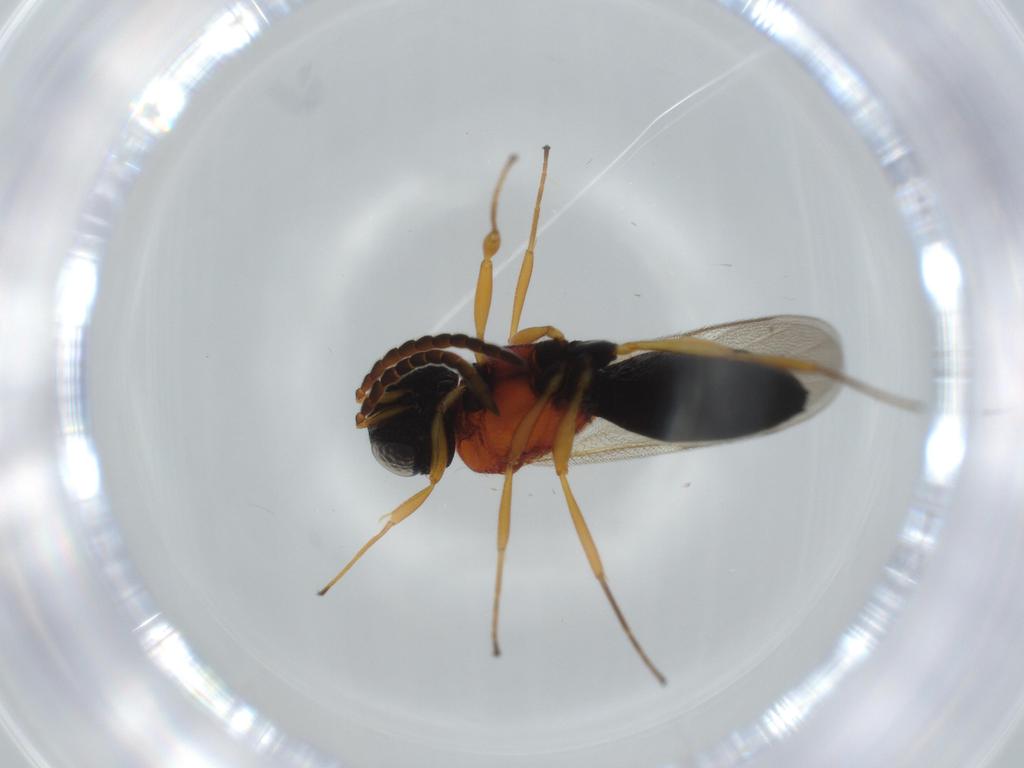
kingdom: Animalia
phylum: Arthropoda
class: Insecta
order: Hymenoptera
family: Scelionidae
